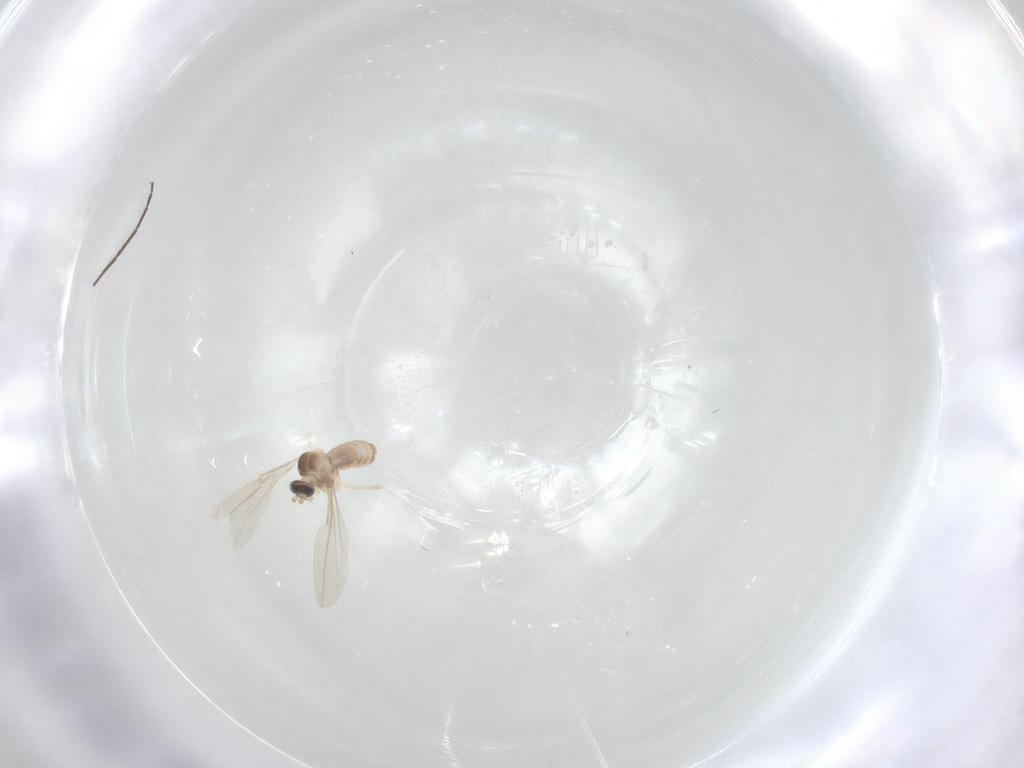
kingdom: Animalia
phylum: Arthropoda
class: Insecta
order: Diptera
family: Cecidomyiidae
